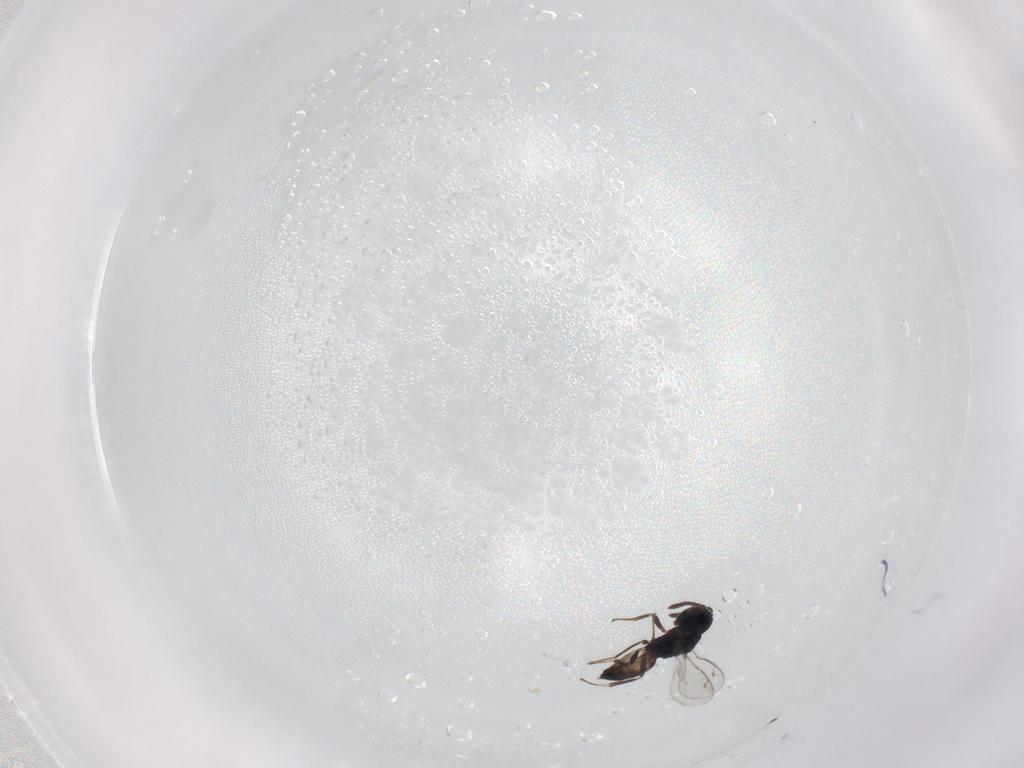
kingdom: Animalia
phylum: Arthropoda
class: Insecta
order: Hymenoptera
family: Pteromalidae
